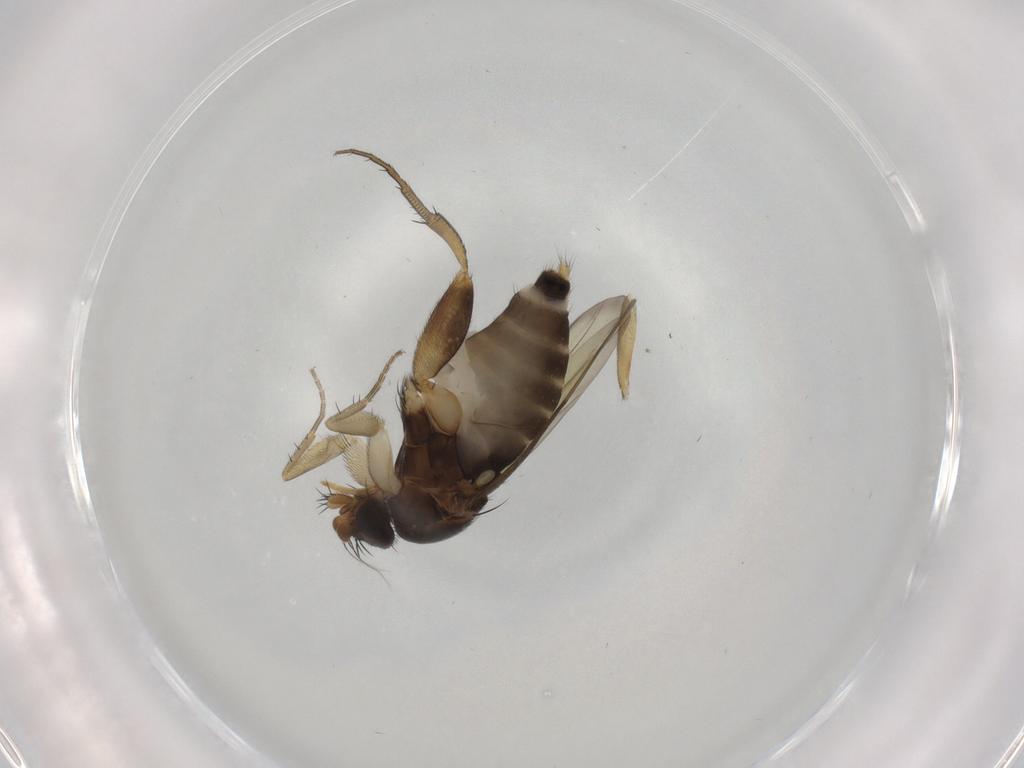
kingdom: Animalia
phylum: Arthropoda
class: Insecta
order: Diptera
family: Phoridae
